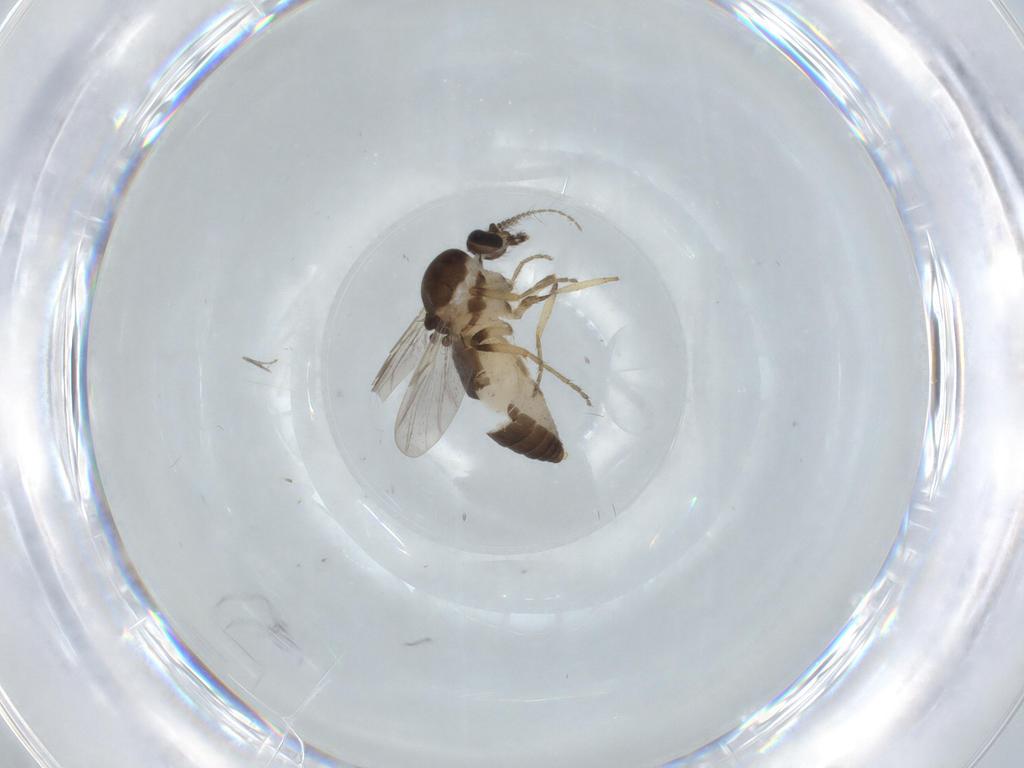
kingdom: Animalia
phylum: Arthropoda
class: Insecta
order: Diptera
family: Ceratopogonidae
